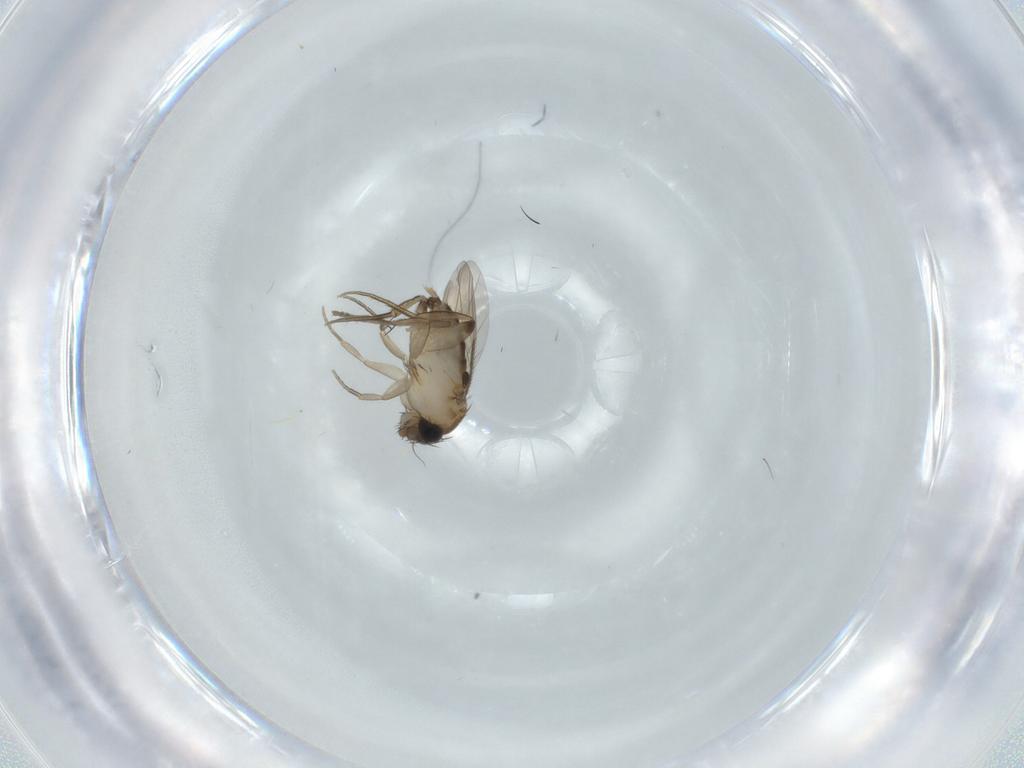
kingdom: Animalia
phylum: Arthropoda
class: Insecta
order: Diptera
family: Phoridae
